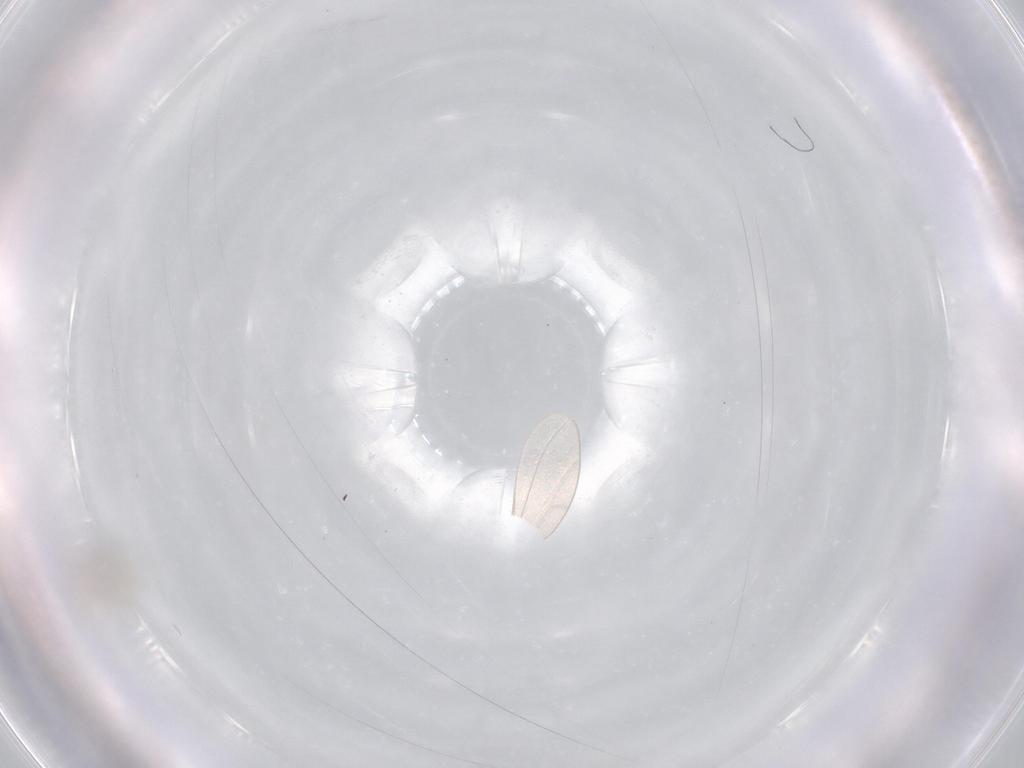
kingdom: Animalia
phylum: Arthropoda
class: Insecta
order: Diptera
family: Cecidomyiidae
